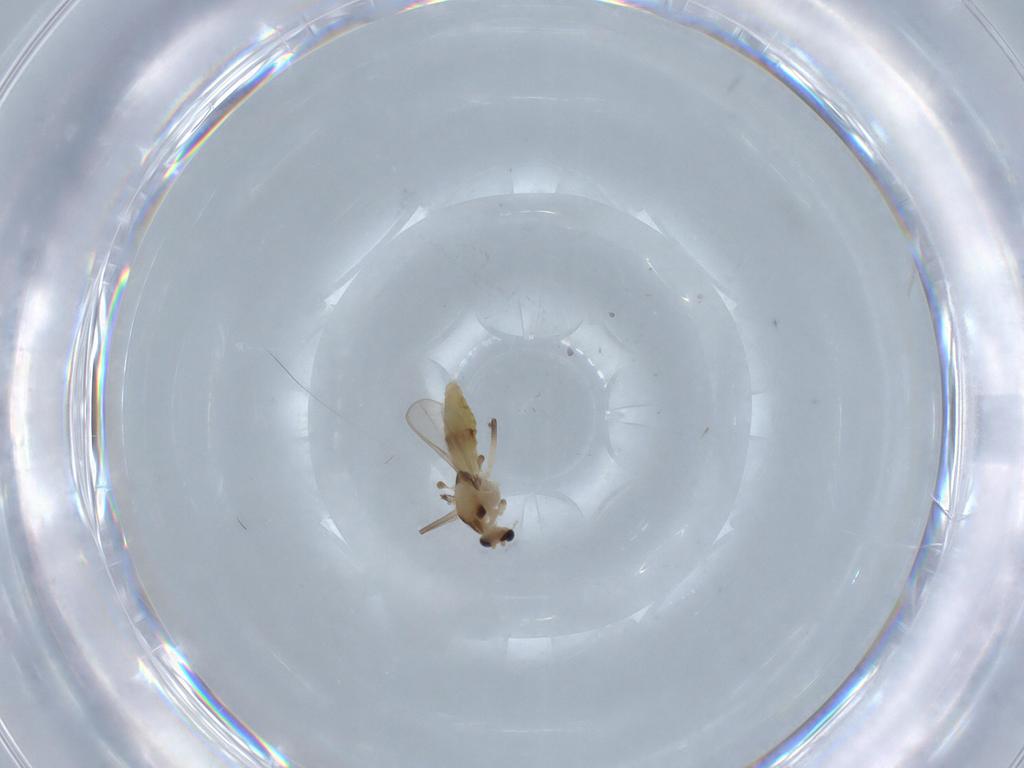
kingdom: Animalia
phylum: Arthropoda
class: Insecta
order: Diptera
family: Chironomidae
